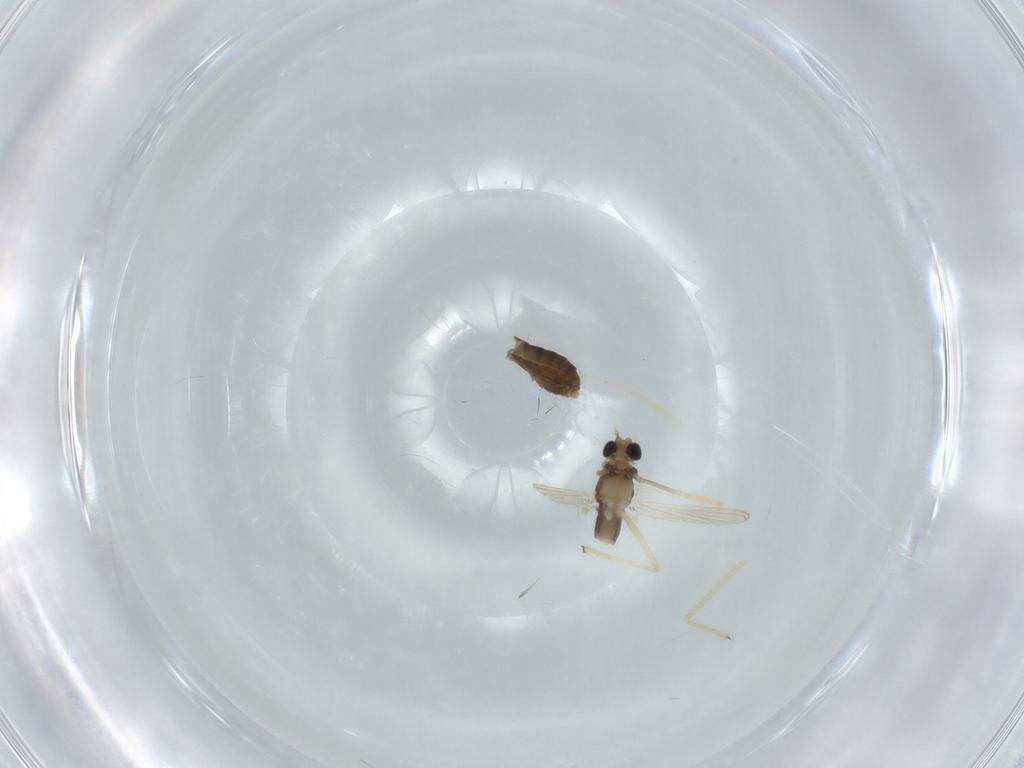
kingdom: Animalia
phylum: Arthropoda
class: Insecta
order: Diptera
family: Chironomidae
